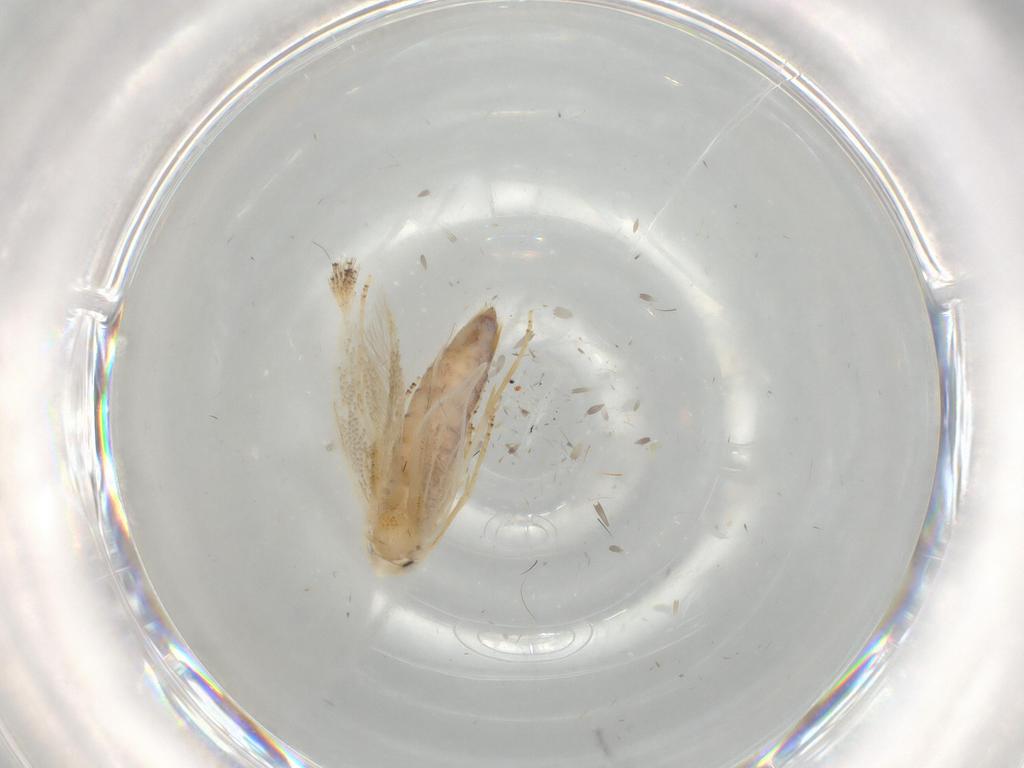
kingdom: Animalia
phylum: Arthropoda
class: Insecta
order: Lepidoptera
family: Bucculatricidae
